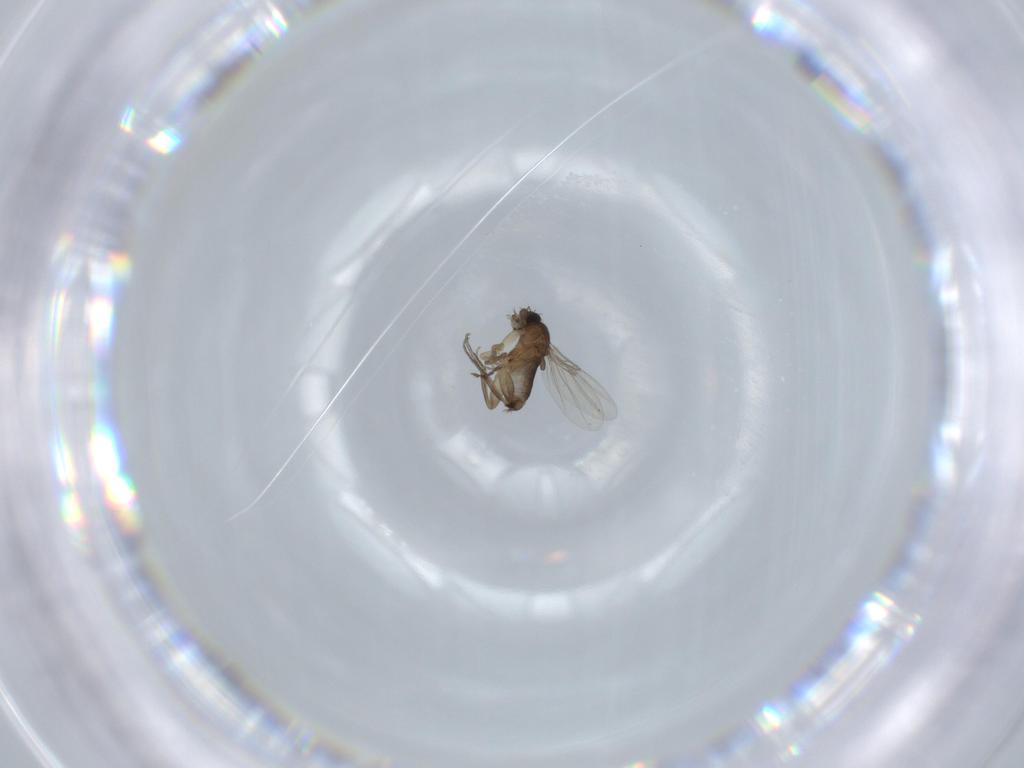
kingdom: Animalia
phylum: Arthropoda
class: Insecta
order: Diptera
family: Phoridae
